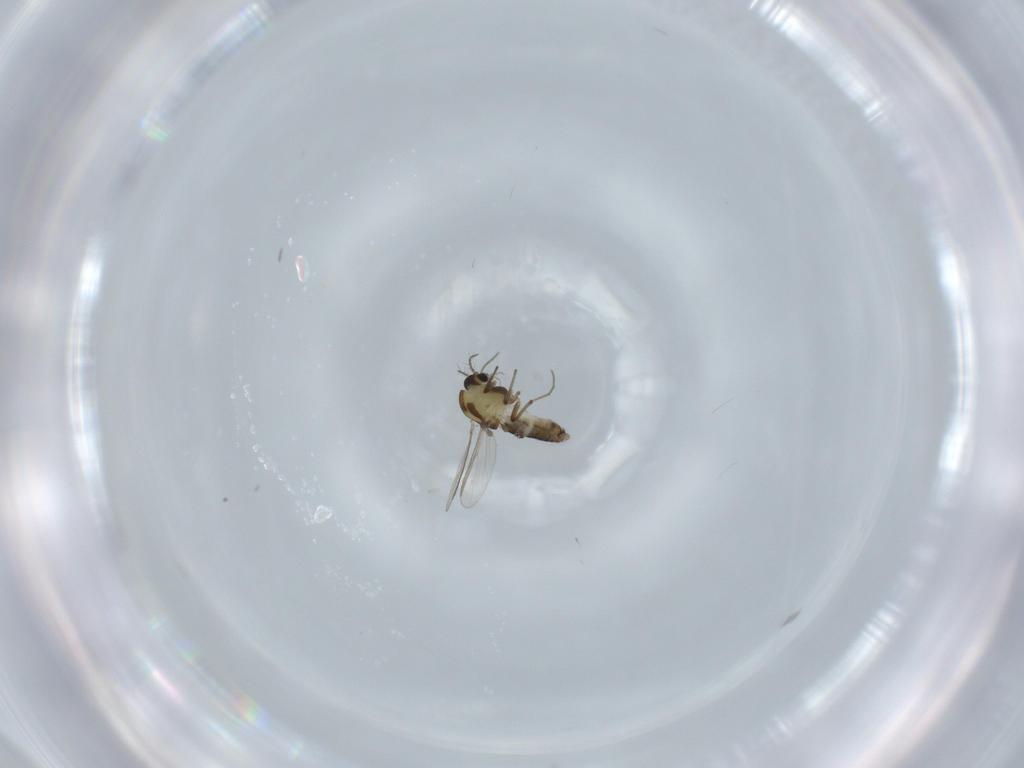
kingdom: Animalia
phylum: Arthropoda
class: Insecta
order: Diptera
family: Chironomidae
